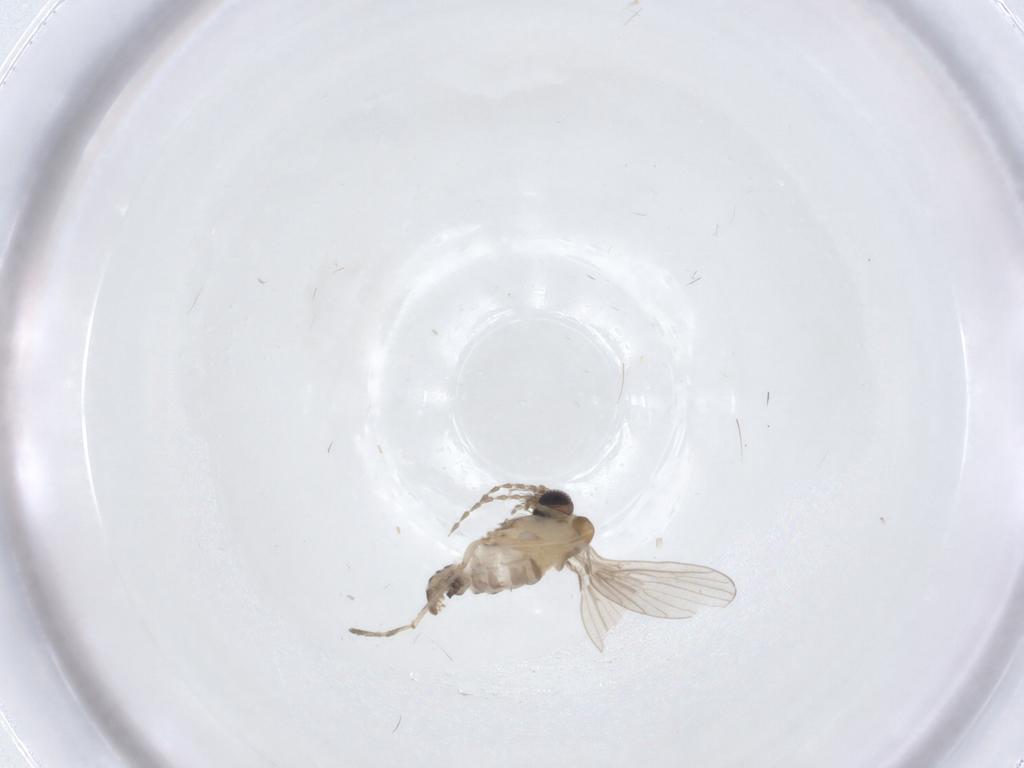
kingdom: Animalia
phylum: Arthropoda
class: Insecta
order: Diptera
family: Psychodidae
